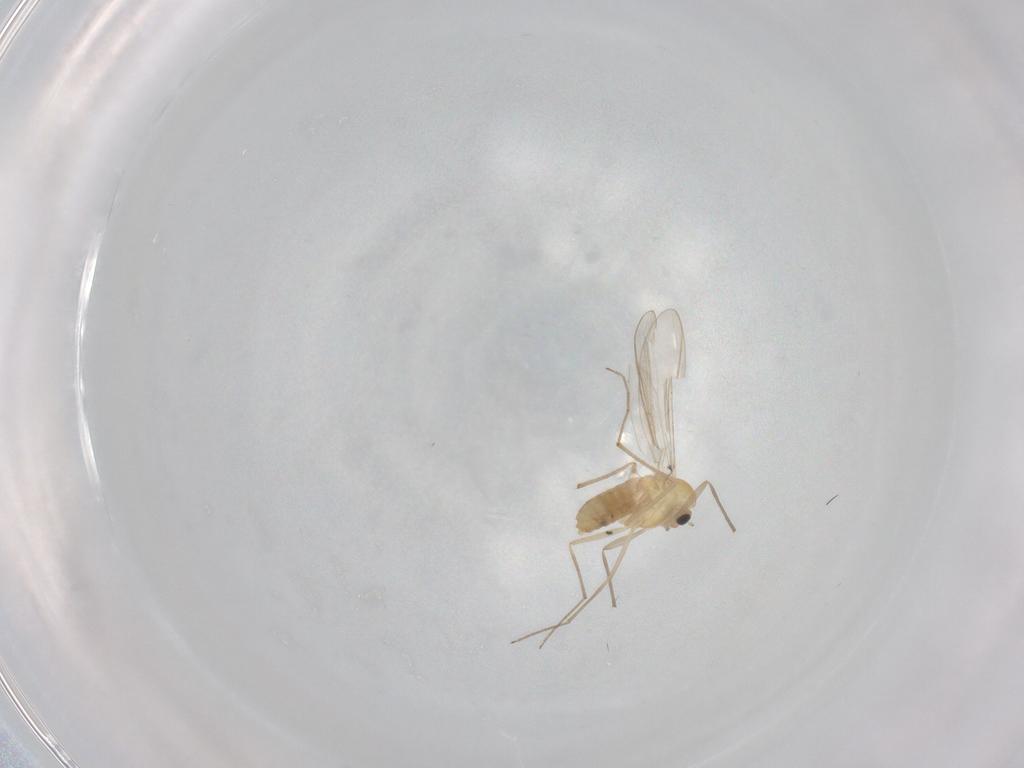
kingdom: Animalia
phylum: Arthropoda
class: Insecta
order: Diptera
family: Chironomidae
